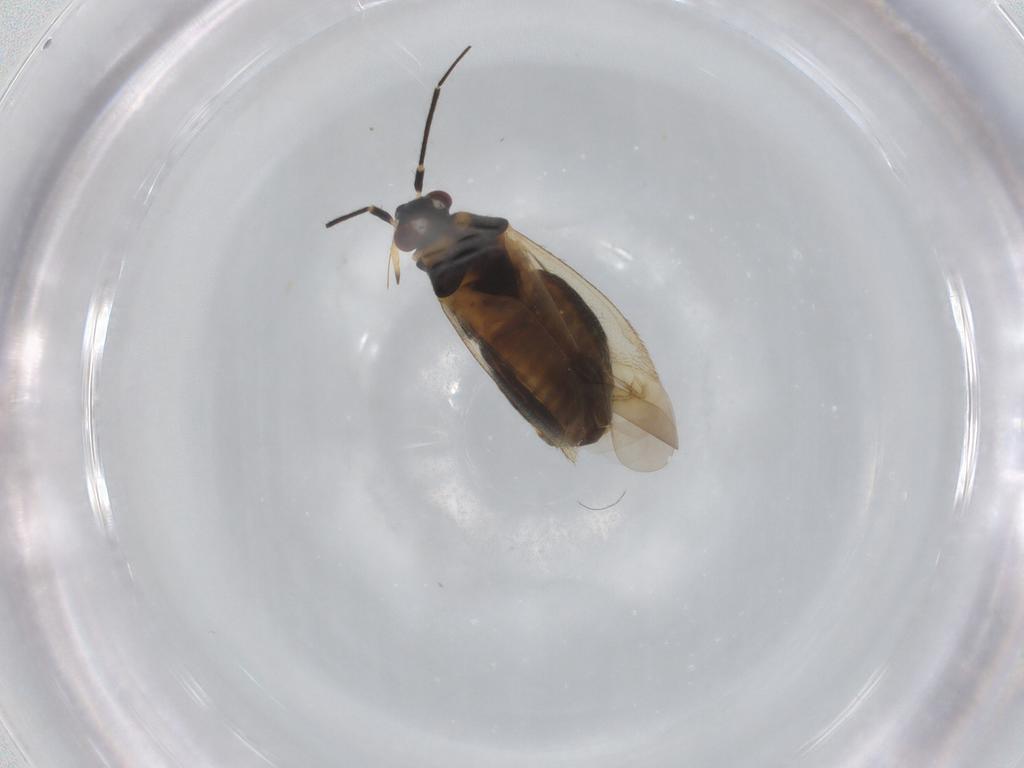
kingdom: Animalia
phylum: Arthropoda
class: Insecta
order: Hemiptera
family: Miridae
